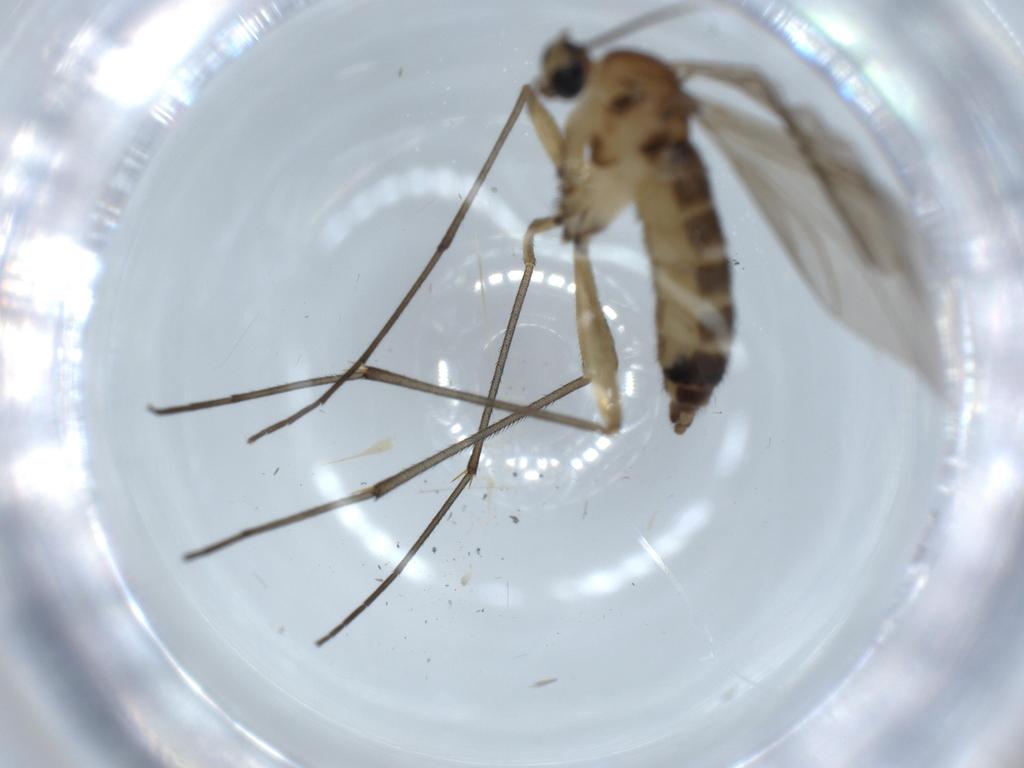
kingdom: Animalia
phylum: Arthropoda
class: Insecta
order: Diptera
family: Sciaridae
